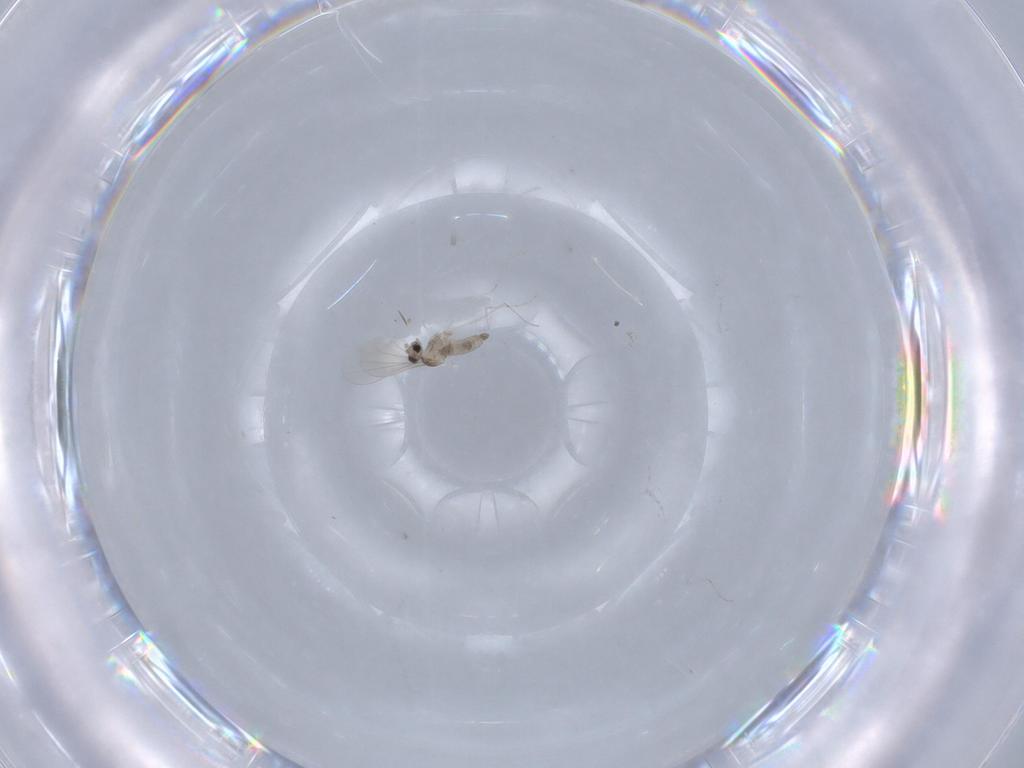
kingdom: Animalia
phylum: Arthropoda
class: Insecta
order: Diptera
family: Cecidomyiidae
